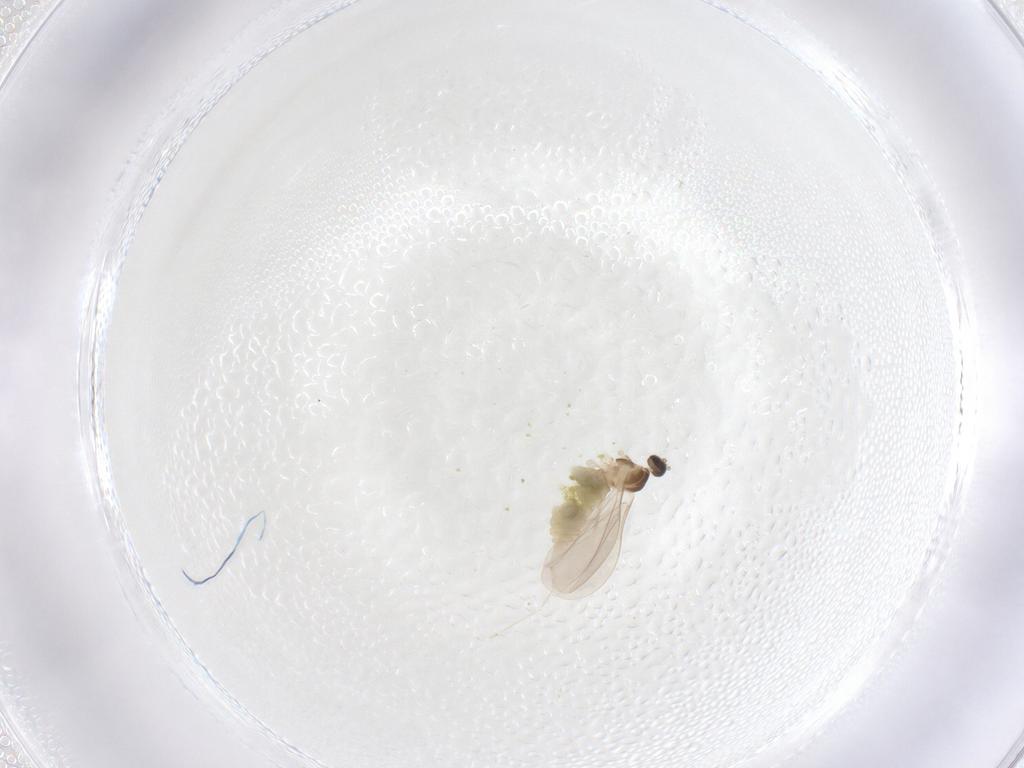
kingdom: Animalia
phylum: Arthropoda
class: Insecta
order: Diptera
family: Cecidomyiidae
